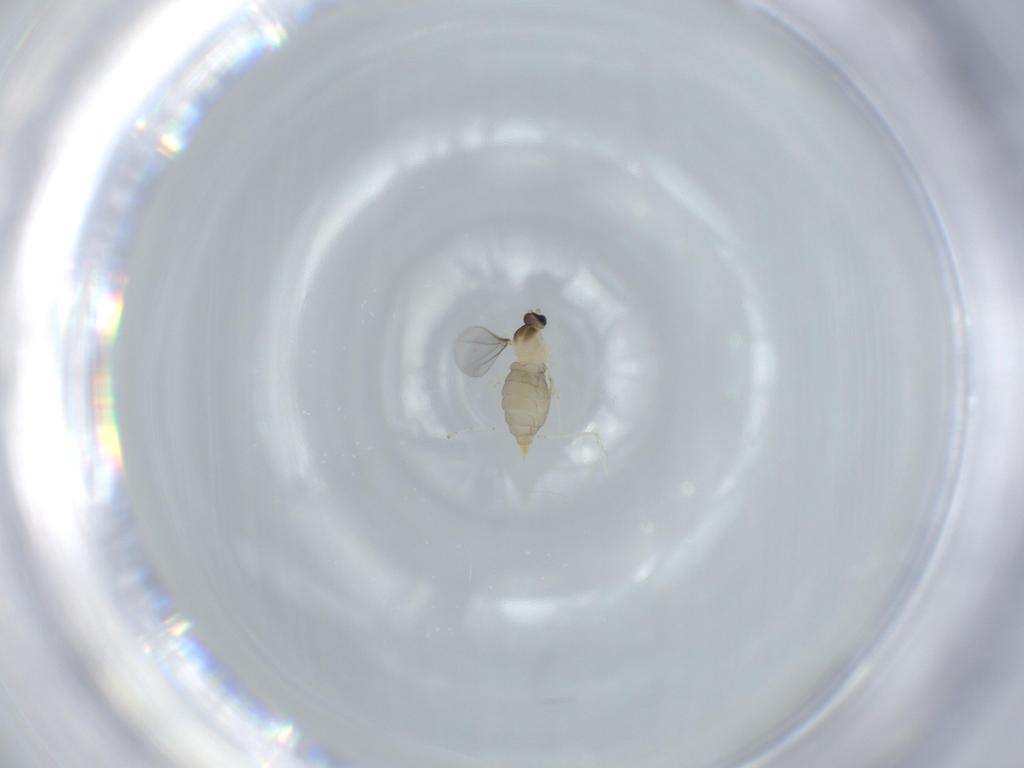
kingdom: Animalia
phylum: Arthropoda
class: Insecta
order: Diptera
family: Cecidomyiidae
